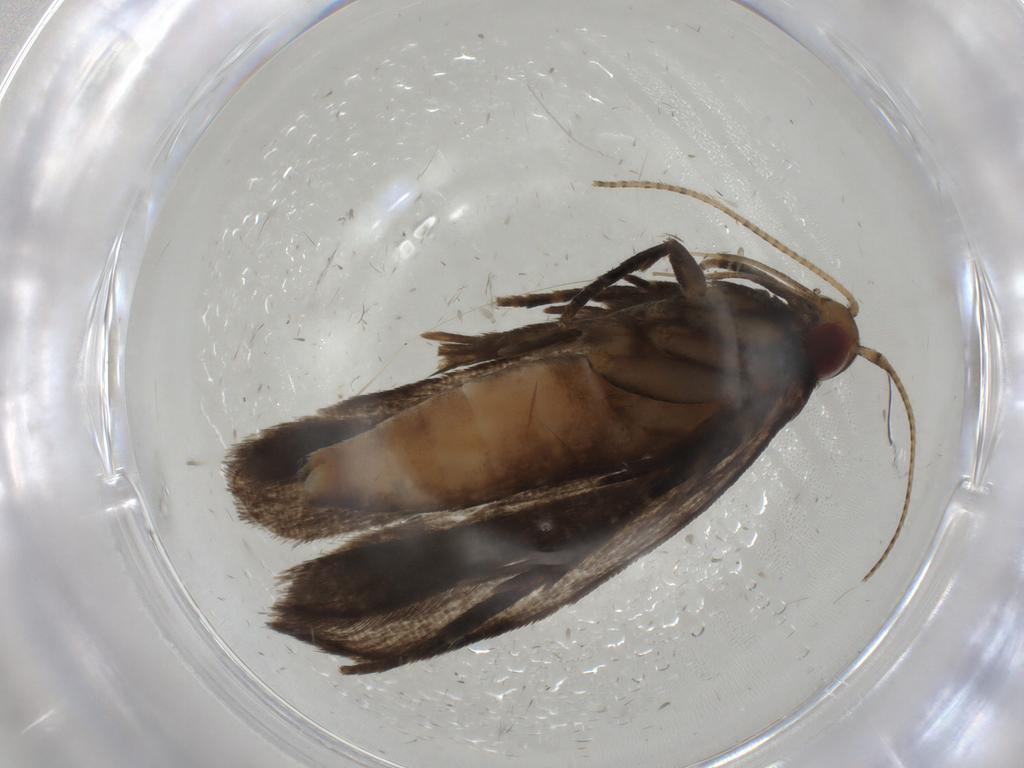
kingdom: Animalia
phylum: Arthropoda
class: Insecta
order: Lepidoptera
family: Gelechiidae
